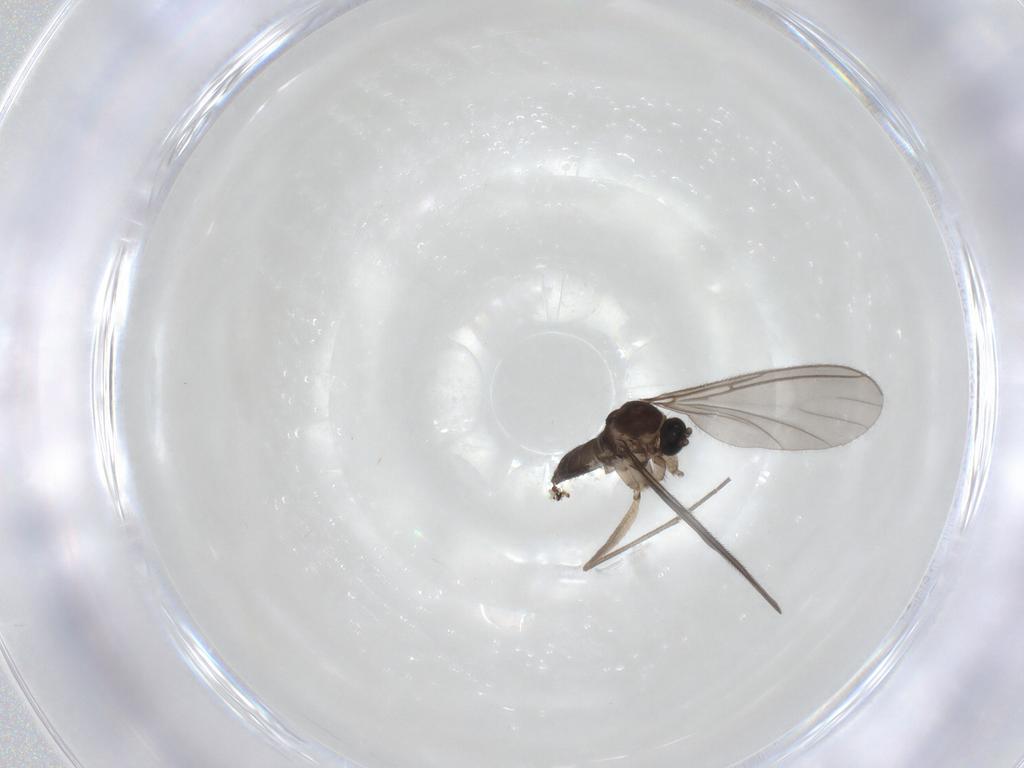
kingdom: Animalia
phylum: Arthropoda
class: Insecta
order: Diptera
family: Sciaridae
